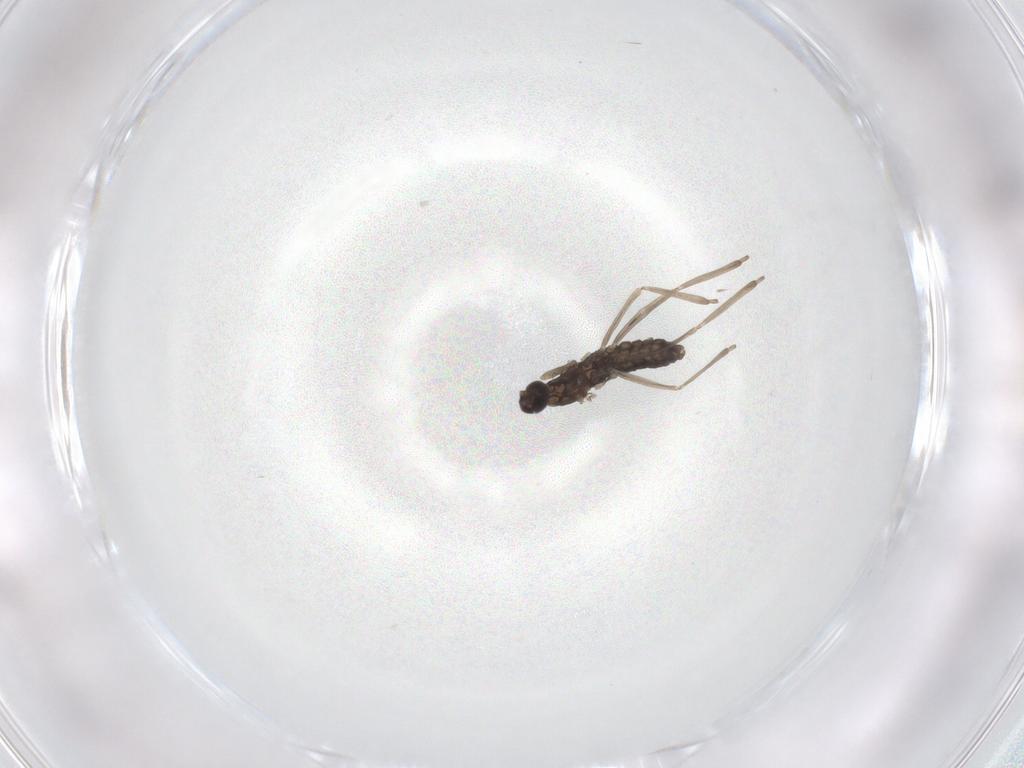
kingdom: Animalia
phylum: Arthropoda
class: Insecta
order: Diptera
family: Cecidomyiidae
